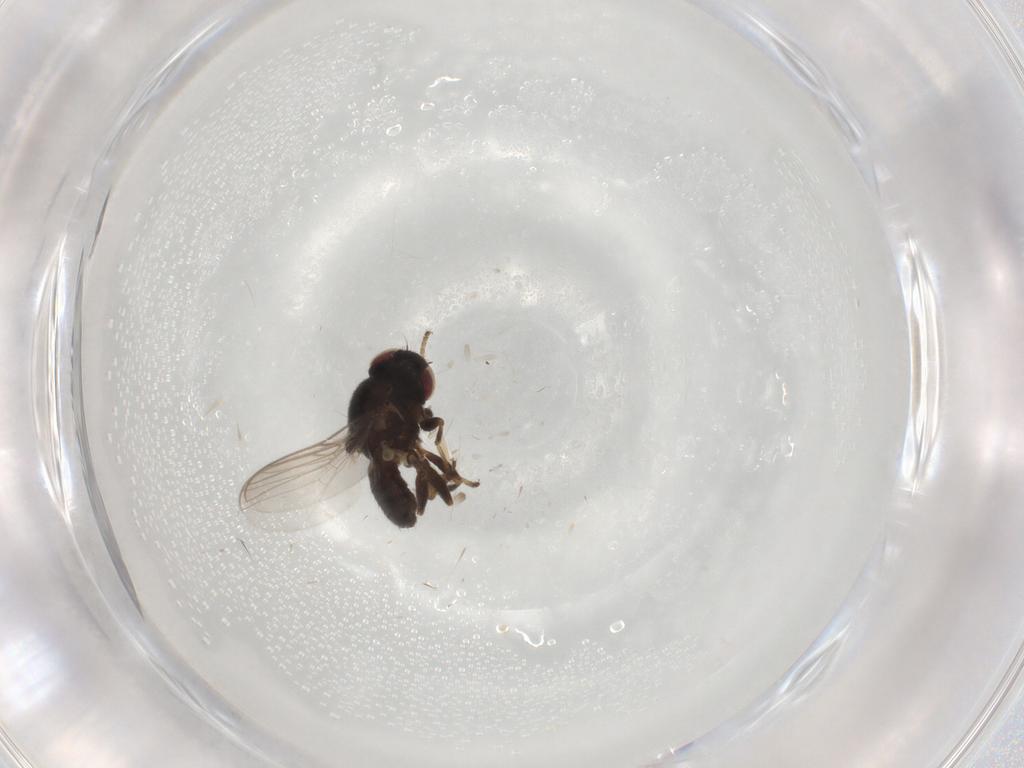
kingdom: Animalia
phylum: Arthropoda
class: Insecta
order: Diptera
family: Chloropidae
